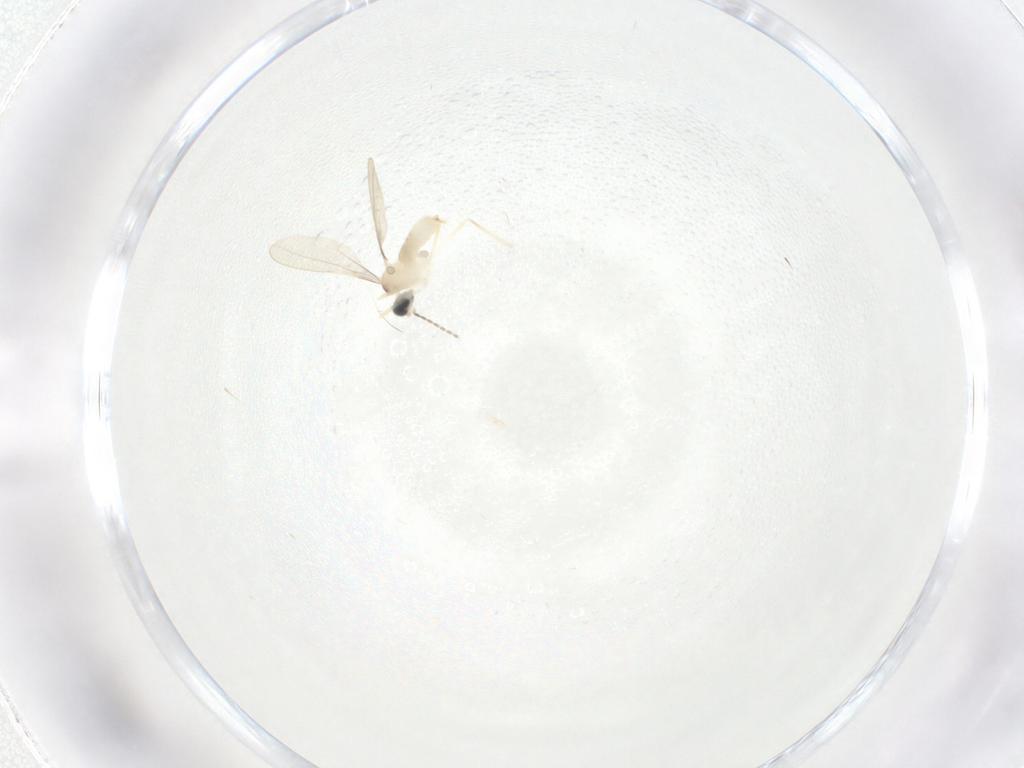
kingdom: Animalia
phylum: Arthropoda
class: Insecta
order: Diptera
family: Cecidomyiidae
